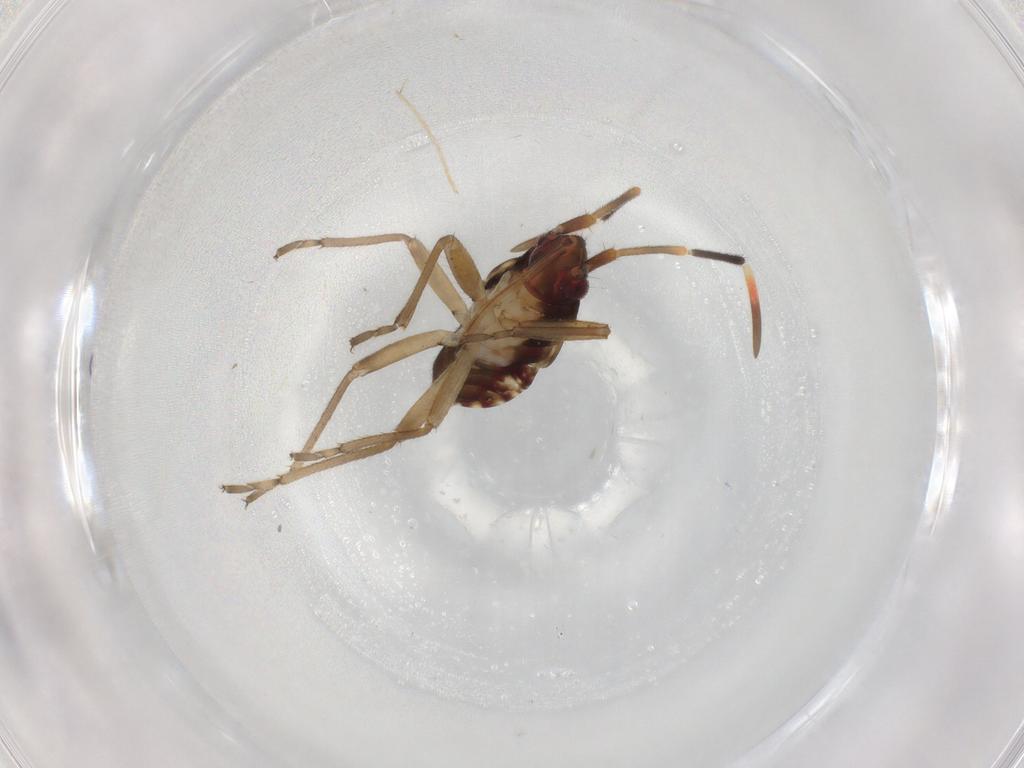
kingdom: Animalia
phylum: Arthropoda
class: Insecta
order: Hemiptera
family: Rhyparochromidae
